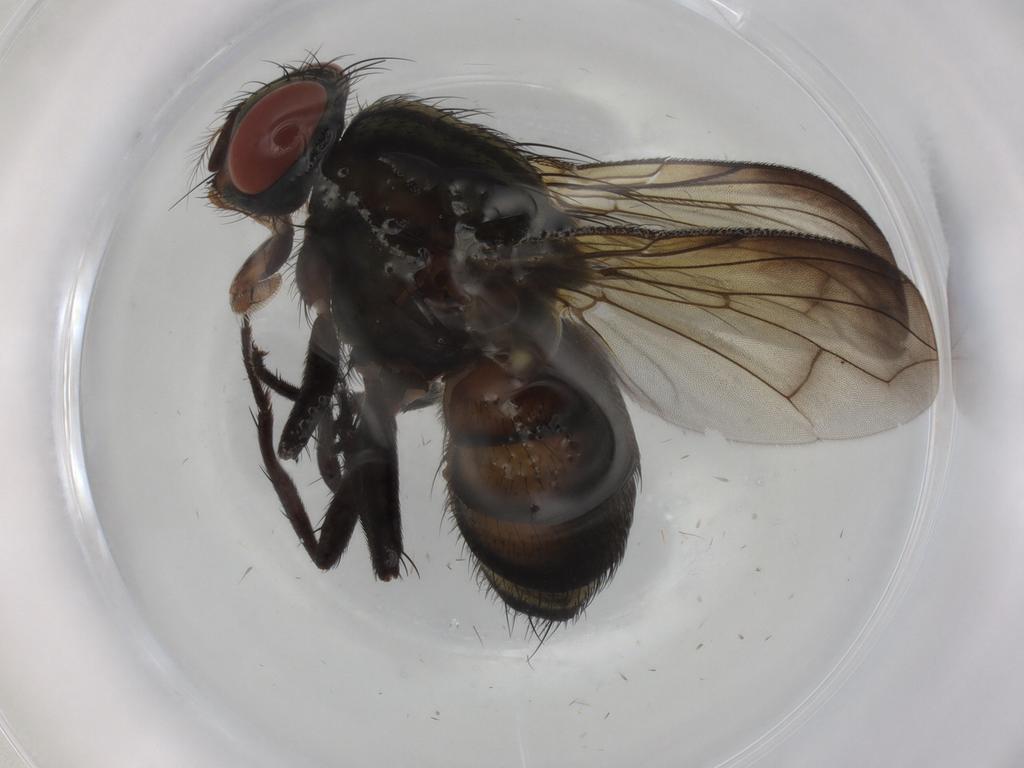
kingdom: Animalia
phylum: Arthropoda
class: Insecta
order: Diptera
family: Sarcophagidae
